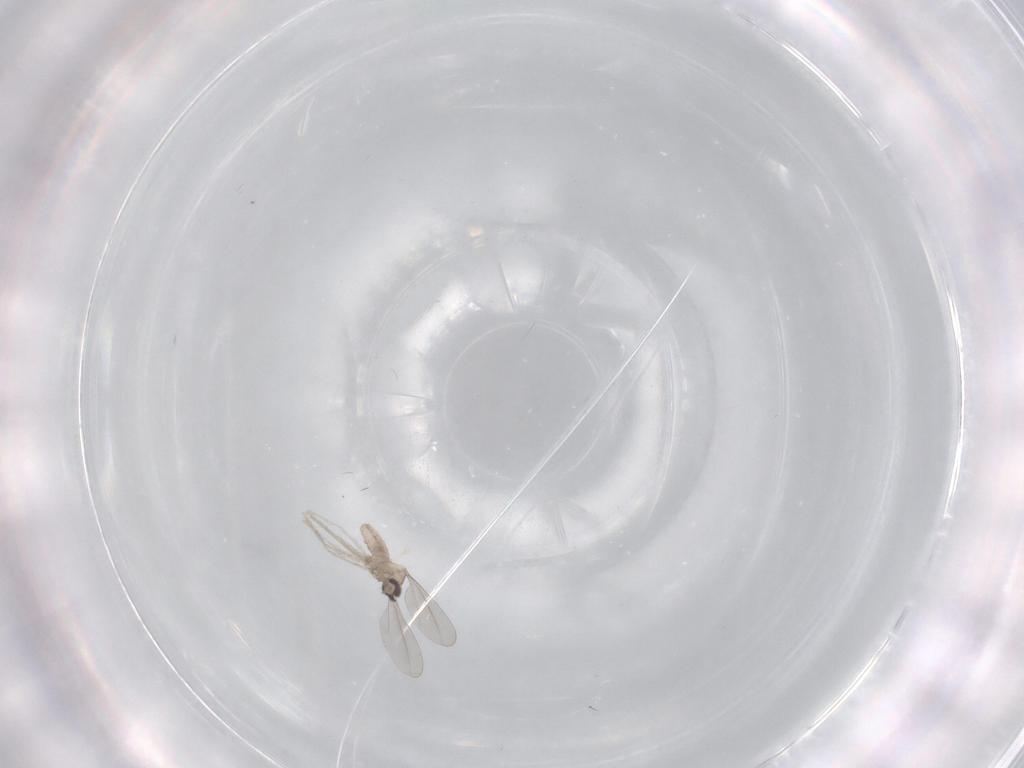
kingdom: Animalia
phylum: Arthropoda
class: Insecta
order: Diptera
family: Cecidomyiidae
